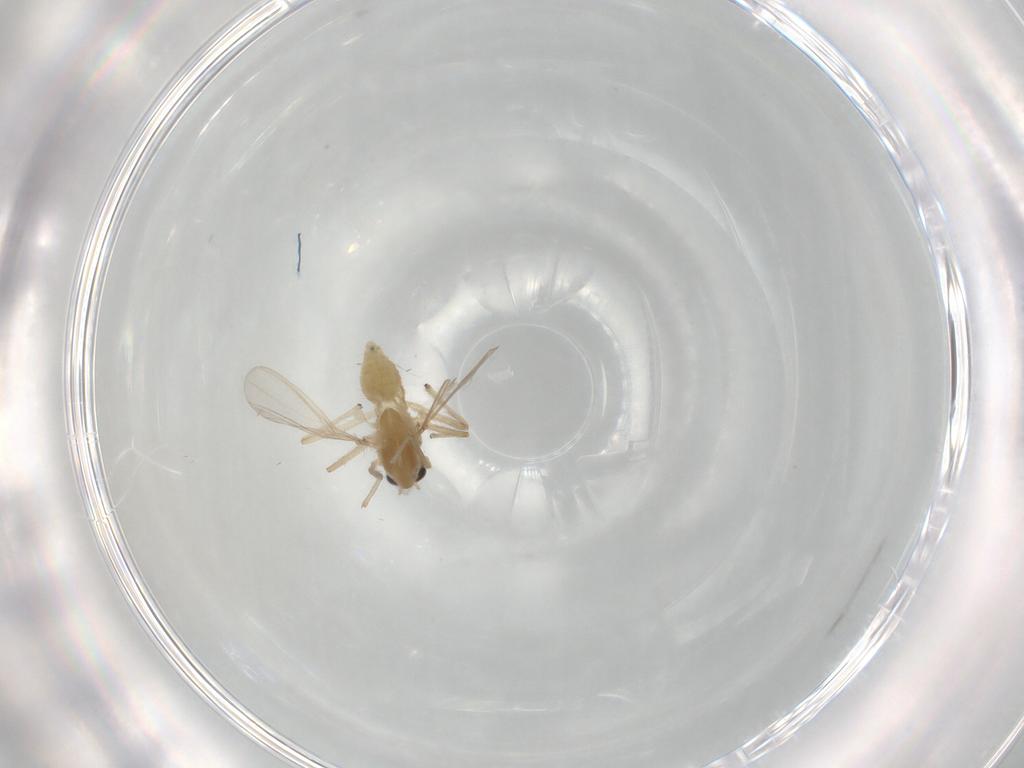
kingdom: Animalia
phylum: Arthropoda
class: Insecta
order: Diptera
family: Chironomidae
